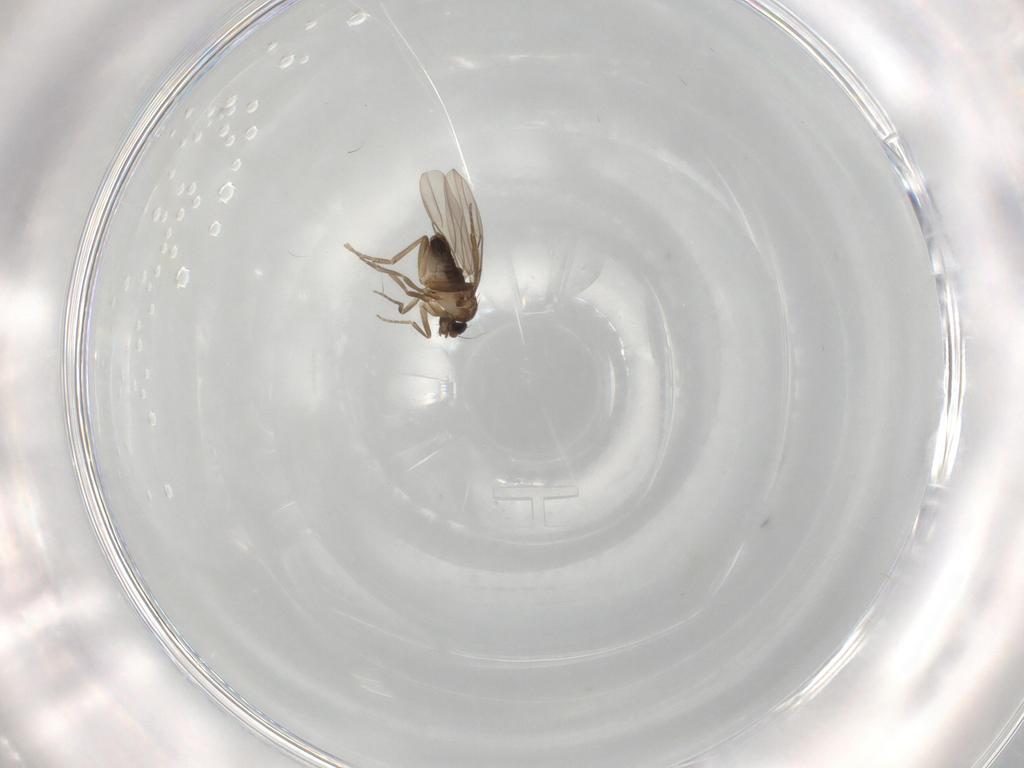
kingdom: Animalia
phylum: Arthropoda
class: Insecta
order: Diptera
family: Phoridae
